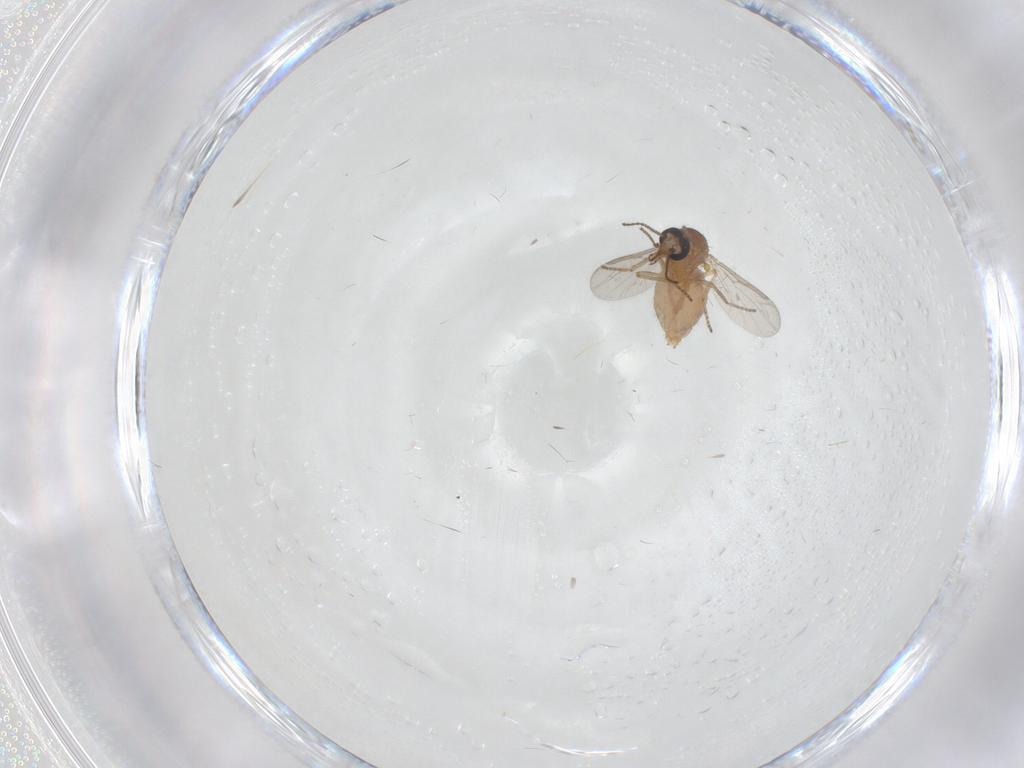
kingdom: Animalia
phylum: Arthropoda
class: Insecta
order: Diptera
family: Ceratopogonidae
